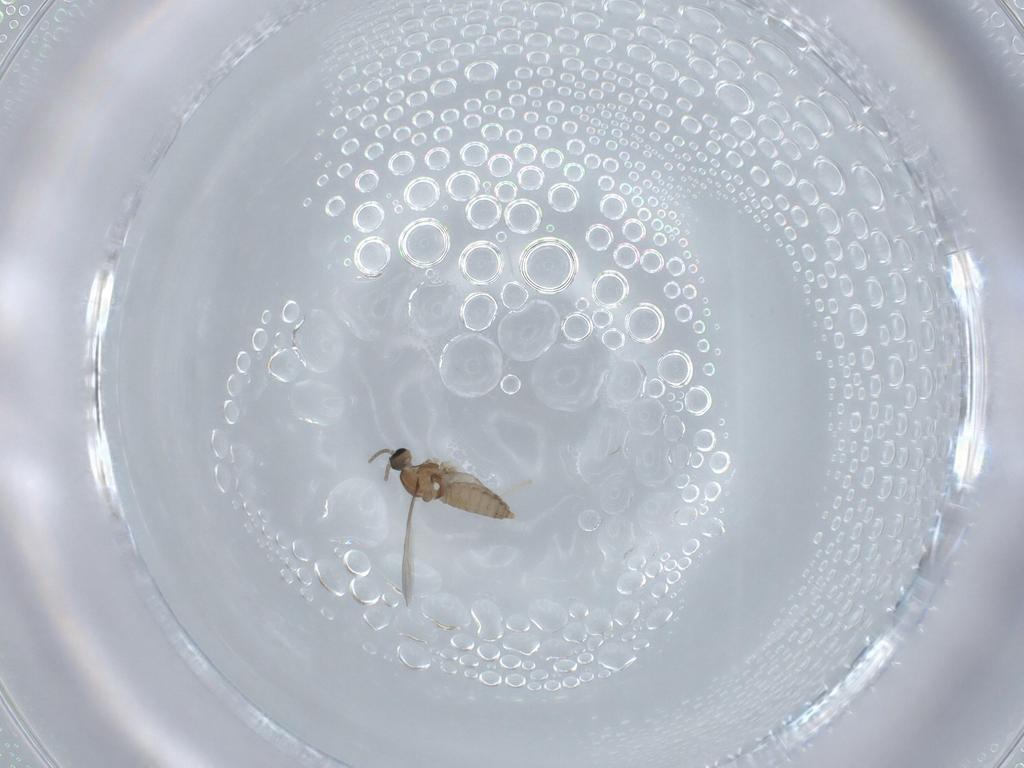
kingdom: Animalia
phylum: Arthropoda
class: Insecta
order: Diptera
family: Cecidomyiidae
